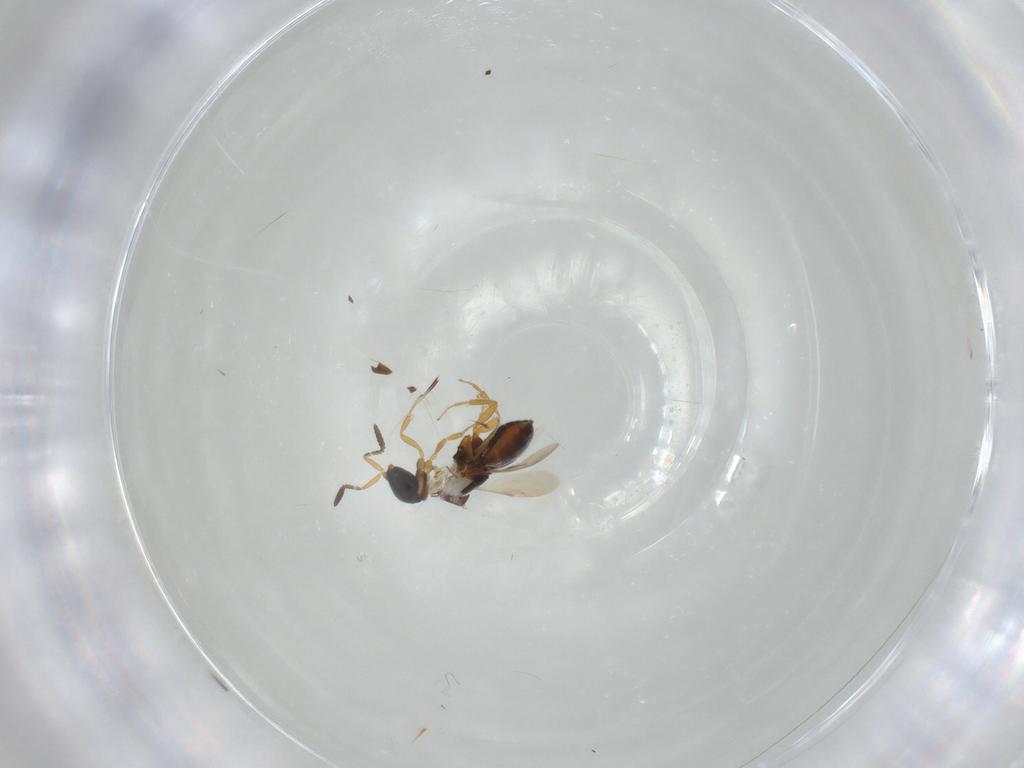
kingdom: Animalia
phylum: Arthropoda
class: Insecta
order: Hymenoptera
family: Scelionidae
